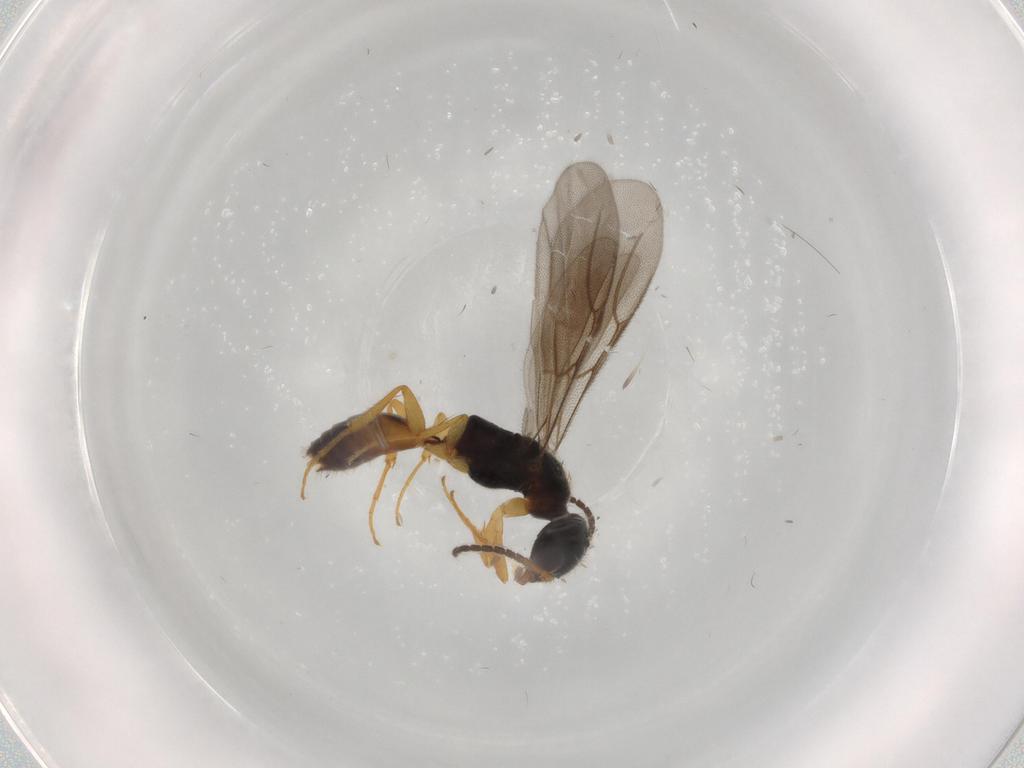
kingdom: Animalia
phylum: Arthropoda
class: Insecta
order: Hymenoptera
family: Bethylidae
